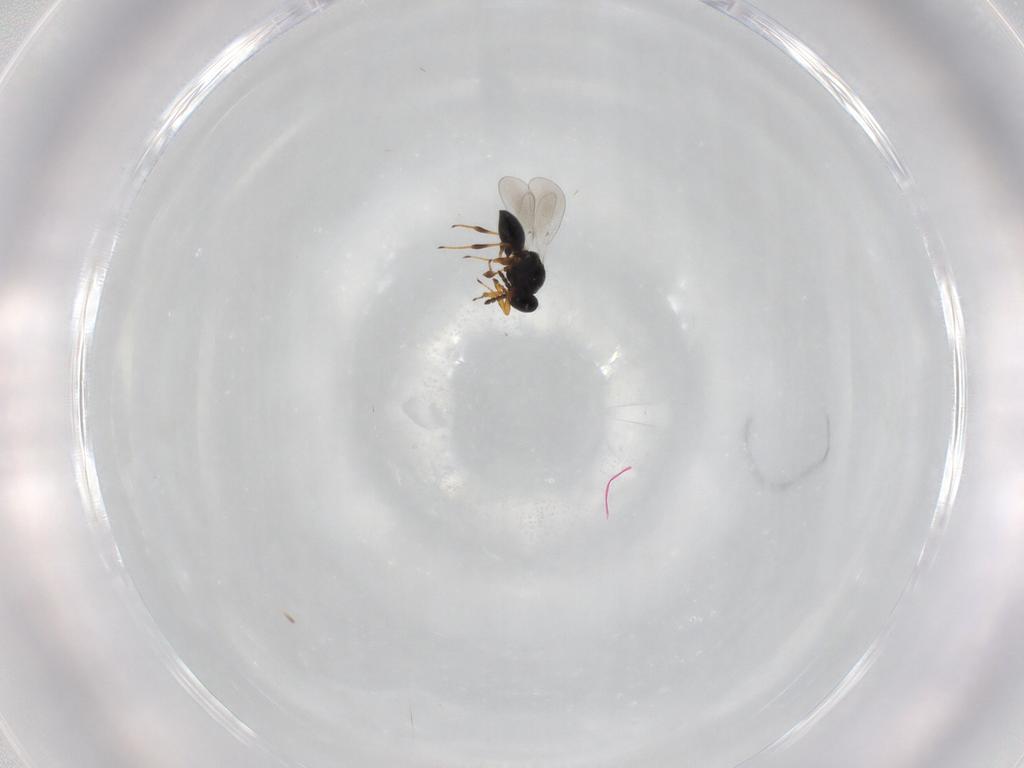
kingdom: Animalia
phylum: Arthropoda
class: Insecta
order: Hymenoptera
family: Platygastridae
